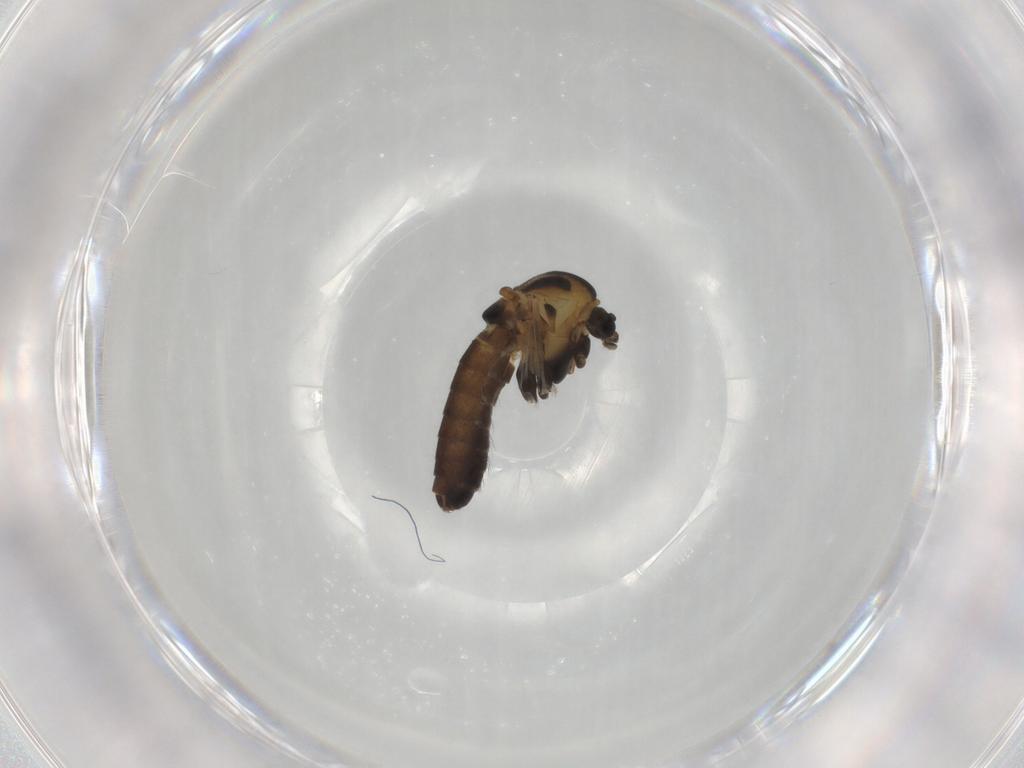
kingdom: Animalia
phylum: Arthropoda
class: Insecta
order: Diptera
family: Chironomidae
